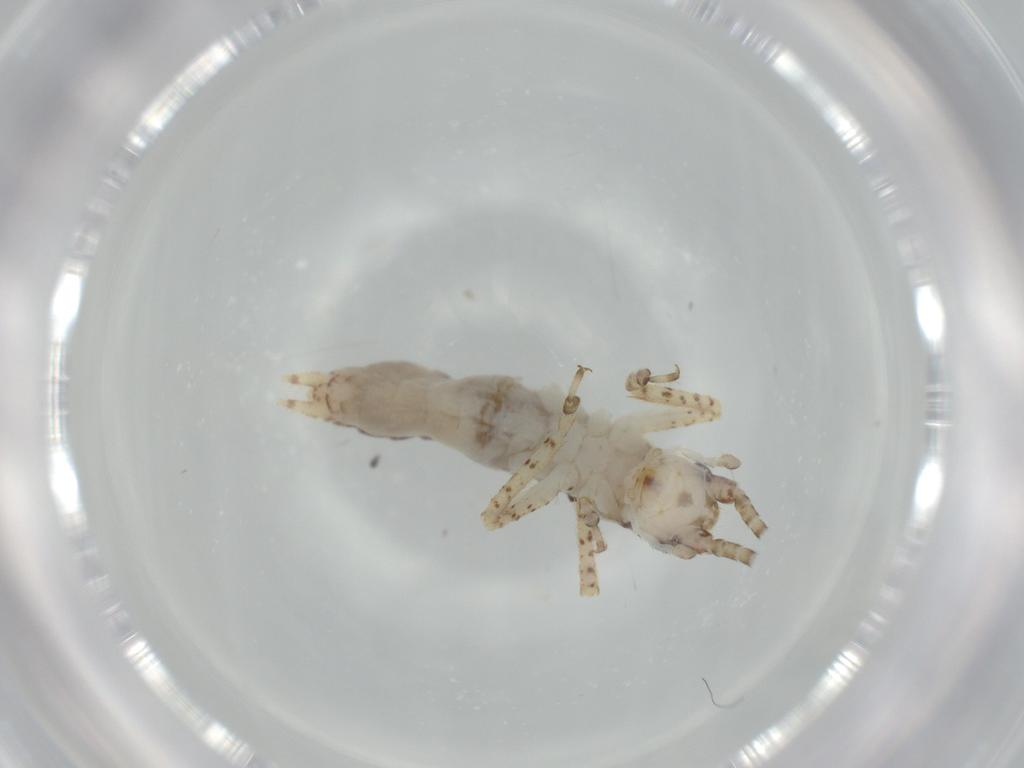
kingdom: Animalia
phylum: Arthropoda
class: Insecta
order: Orthoptera
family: Gryllidae
